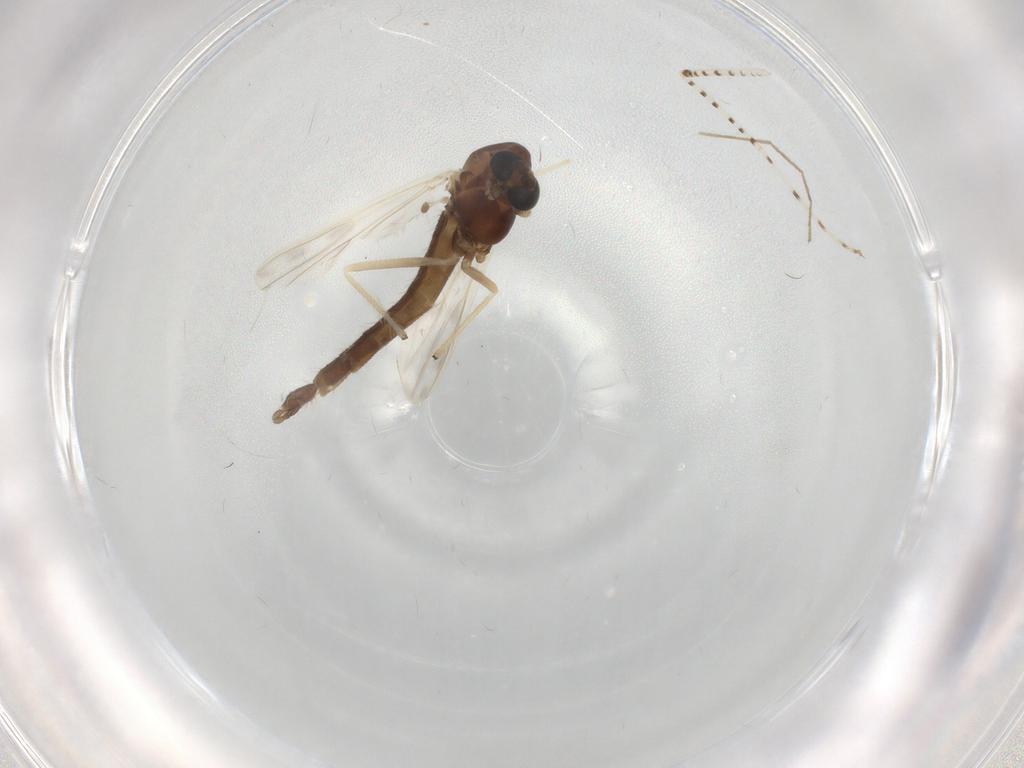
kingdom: Animalia
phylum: Arthropoda
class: Insecta
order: Diptera
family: Chironomidae
